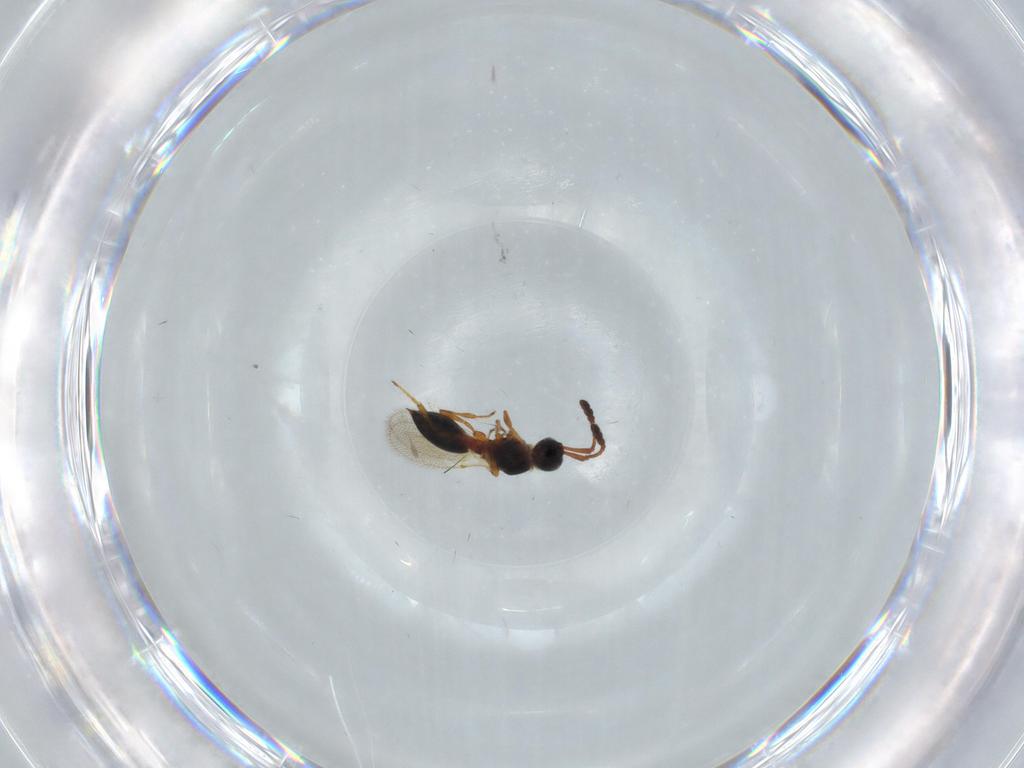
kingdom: Animalia
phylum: Arthropoda
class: Insecta
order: Hymenoptera
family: Diapriidae
